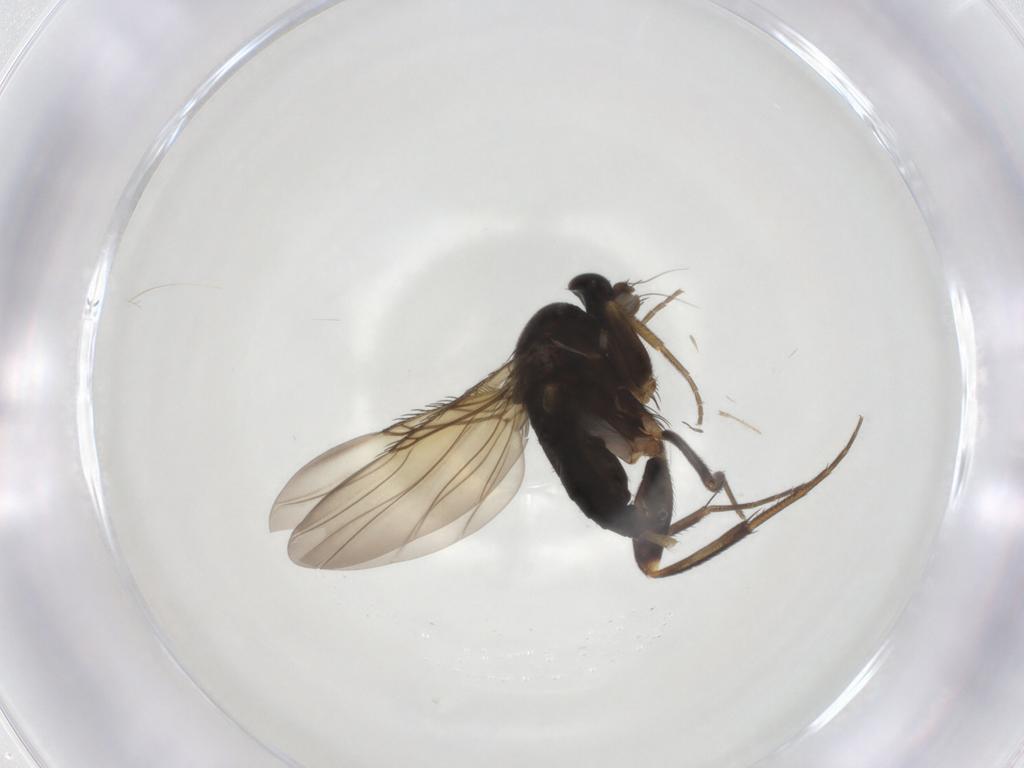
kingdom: Animalia
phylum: Arthropoda
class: Insecta
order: Diptera
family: Phoridae
